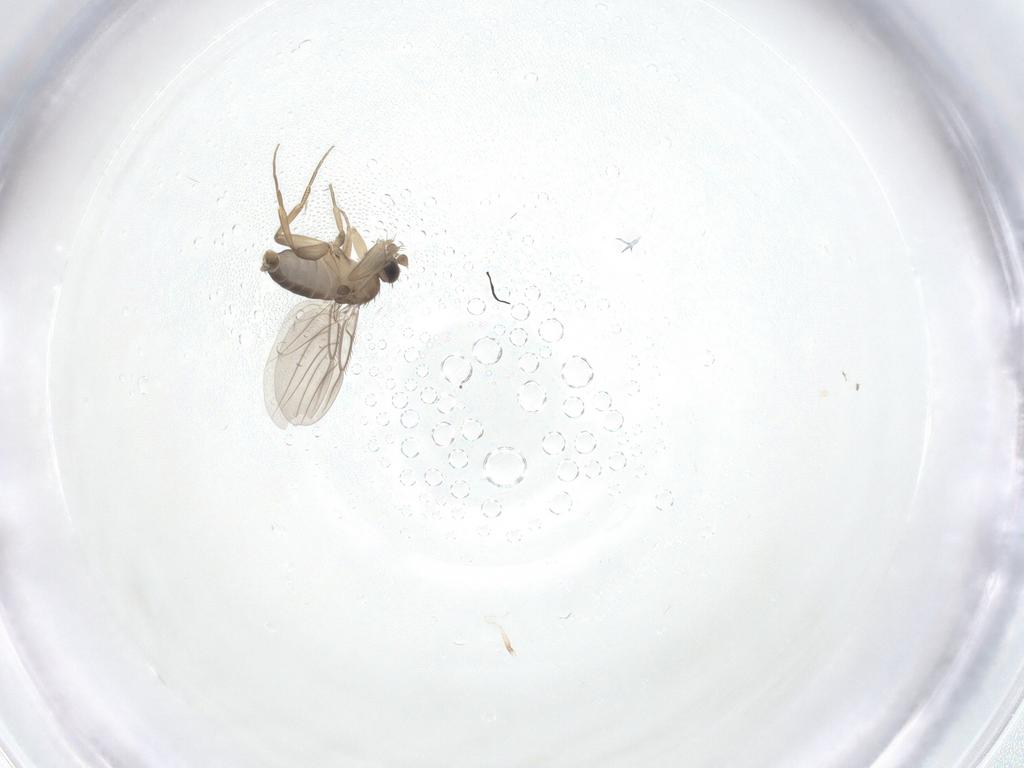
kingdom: Animalia
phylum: Arthropoda
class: Insecta
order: Diptera
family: Psychodidae
